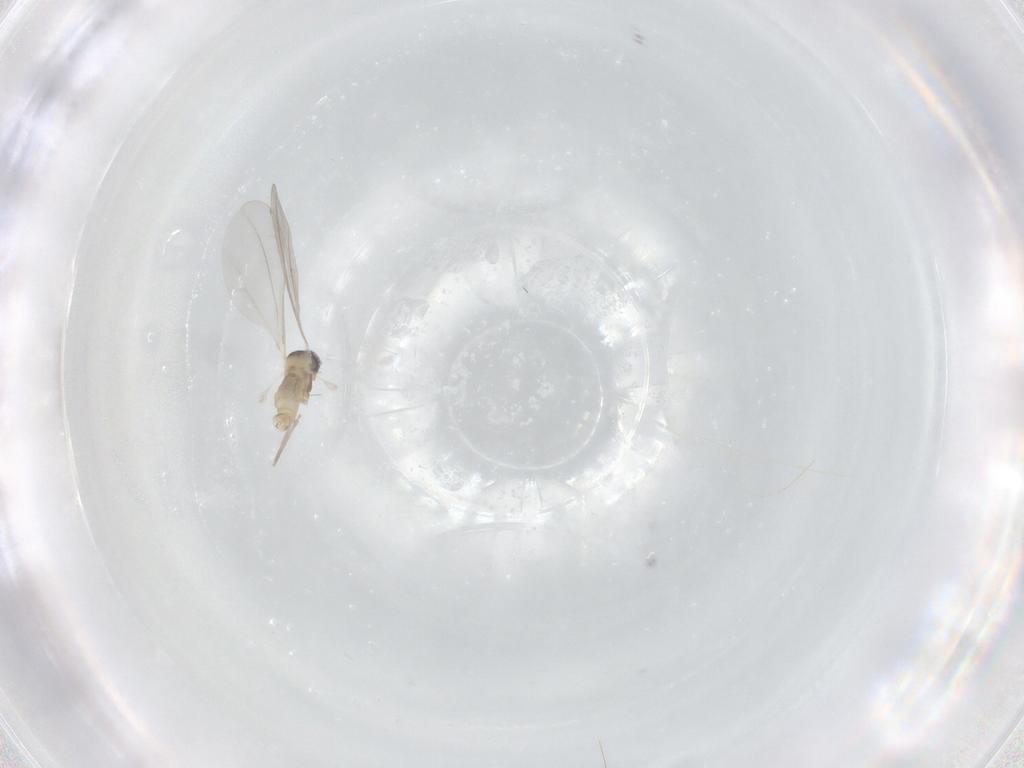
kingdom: Animalia
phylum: Arthropoda
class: Insecta
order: Diptera
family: Cecidomyiidae
